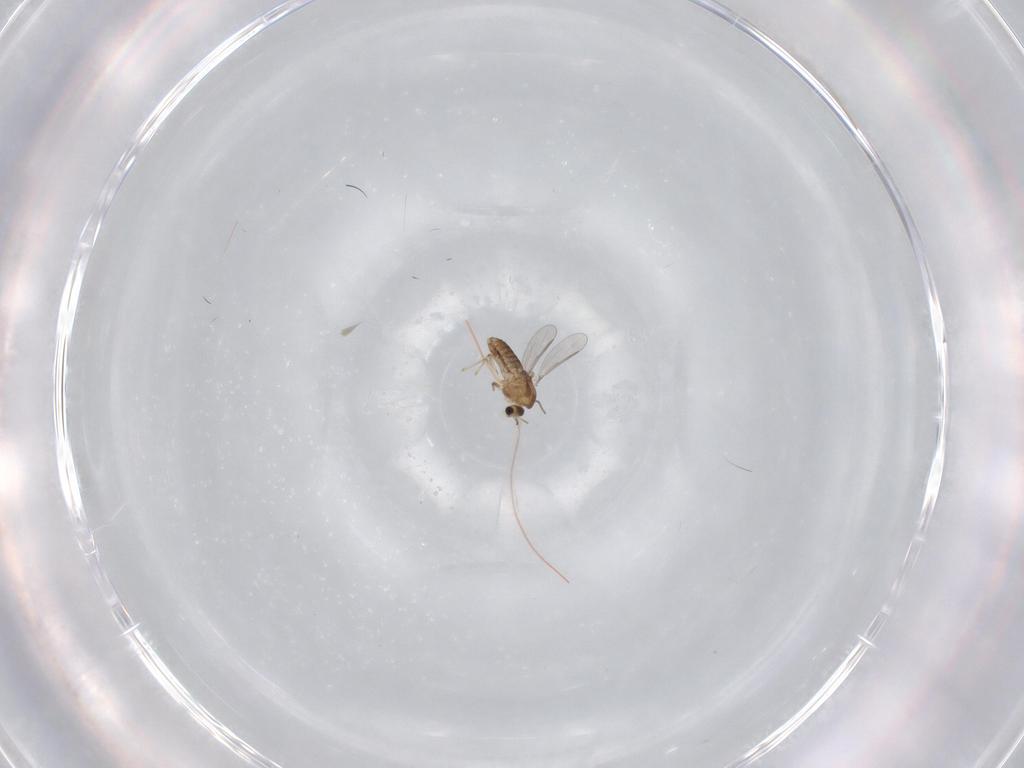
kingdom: Animalia
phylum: Arthropoda
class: Insecta
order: Diptera
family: Chironomidae
